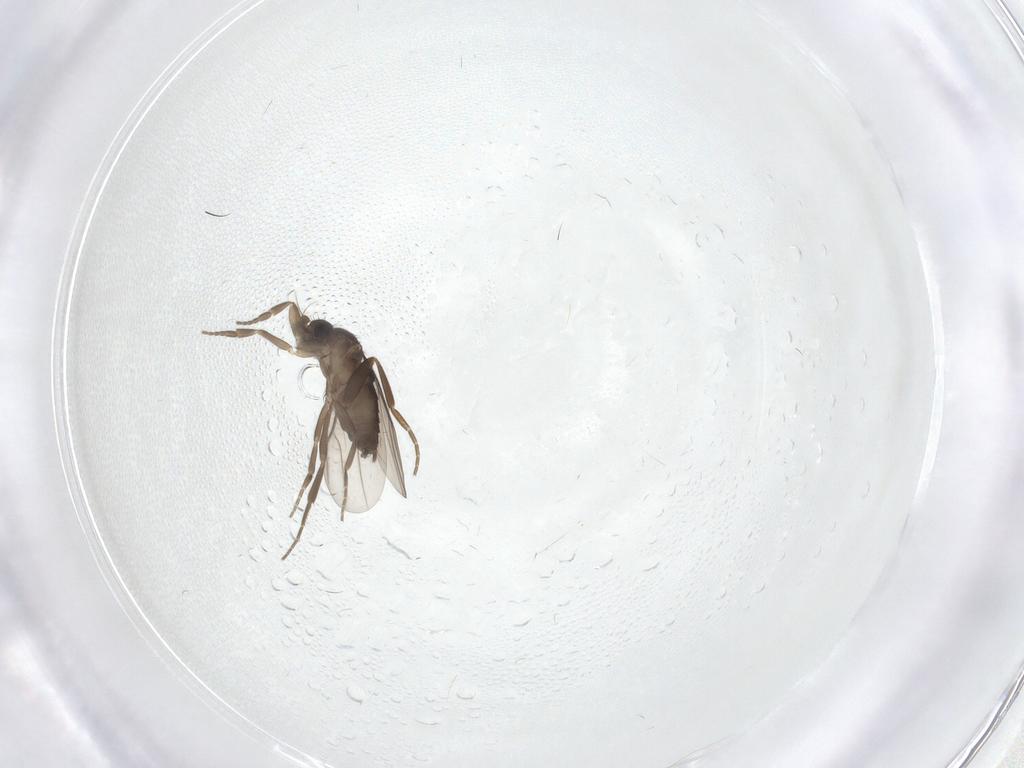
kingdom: Animalia
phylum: Arthropoda
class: Insecta
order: Diptera
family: Phoridae
